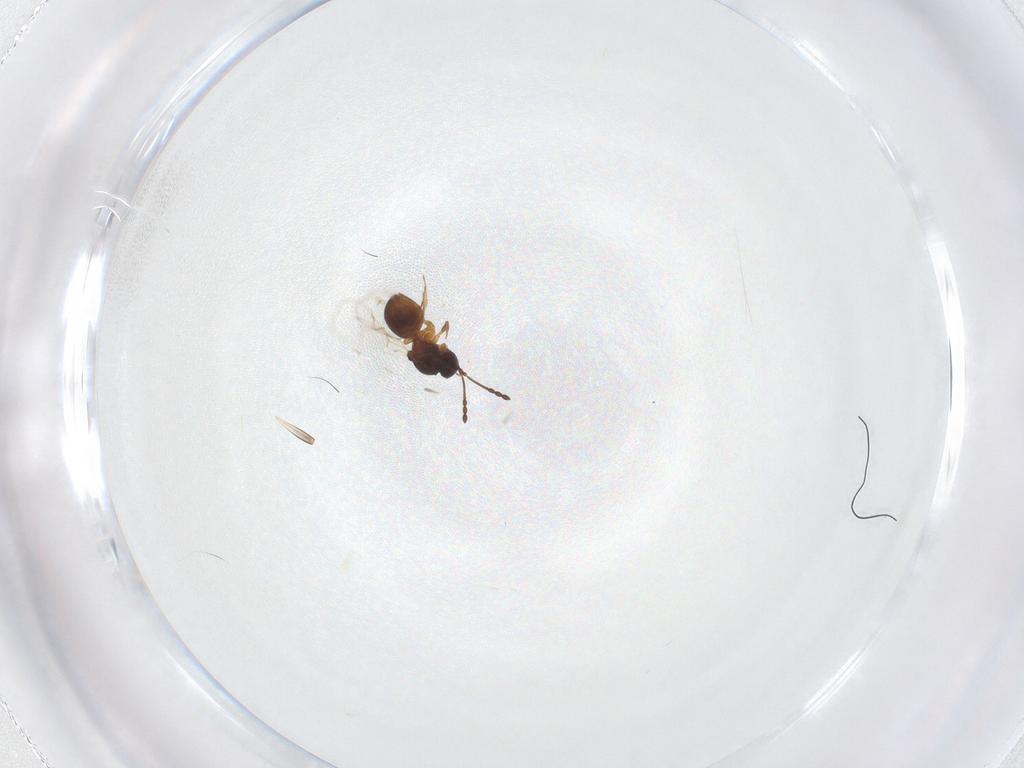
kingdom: Animalia
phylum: Arthropoda
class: Insecta
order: Hymenoptera
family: Figitidae
